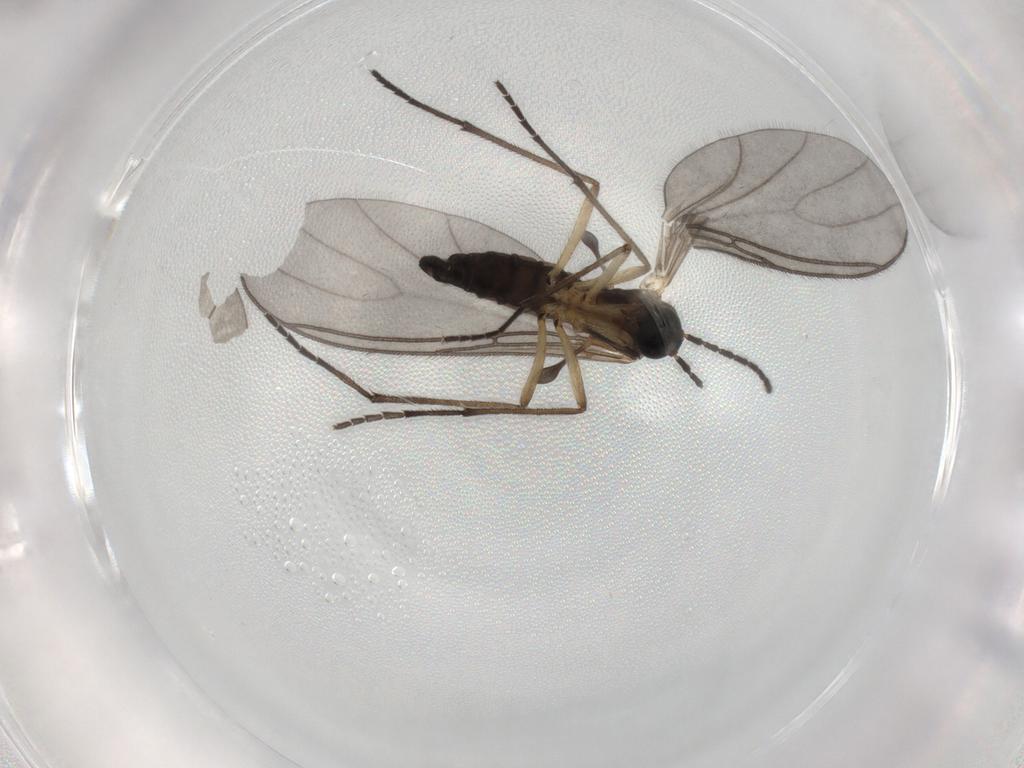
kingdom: Animalia
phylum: Arthropoda
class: Insecta
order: Diptera
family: Sciaridae
